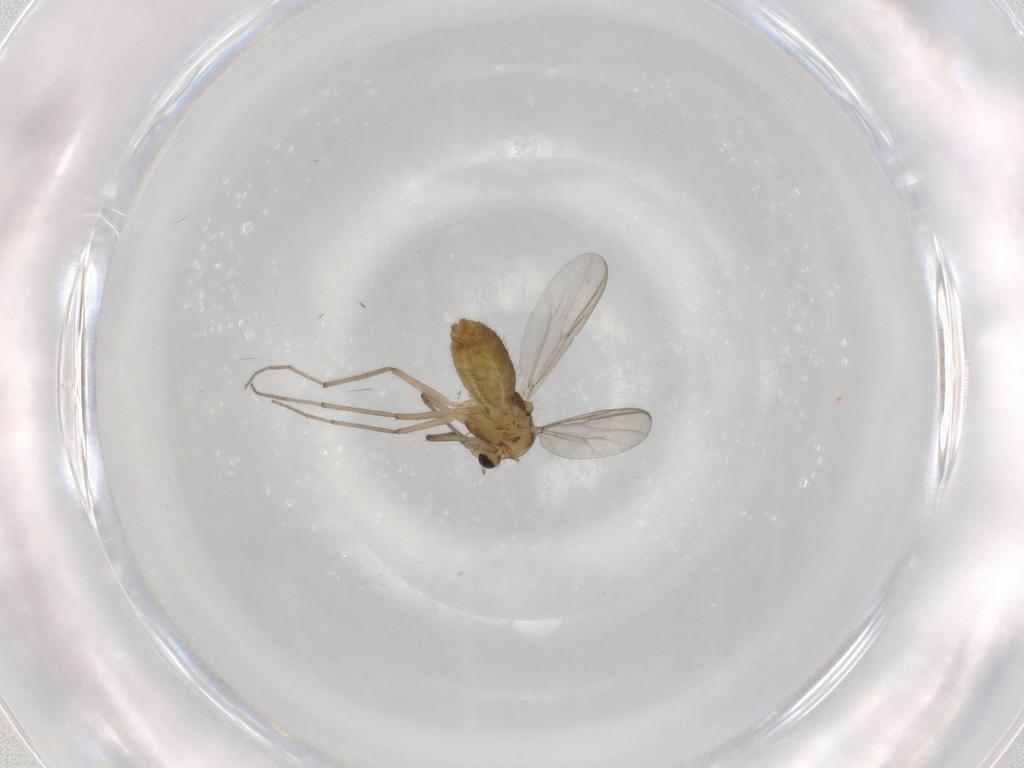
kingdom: Animalia
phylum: Arthropoda
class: Insecta
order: Diptera
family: Chironomidae
